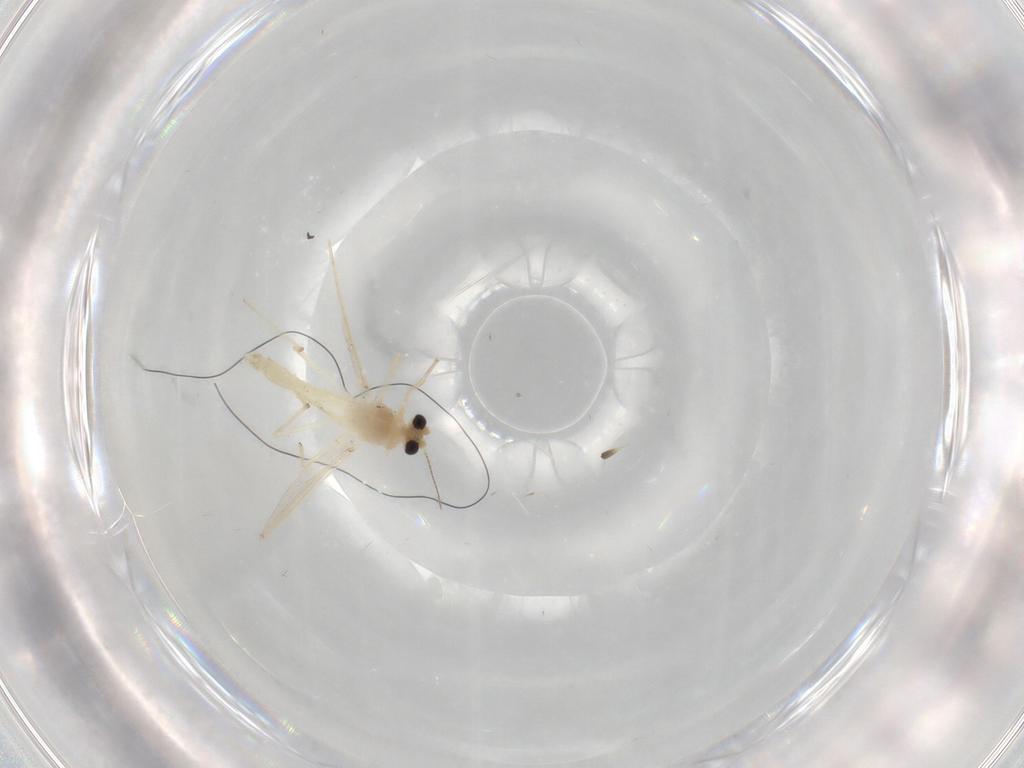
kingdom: Animalia
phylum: Arthropoda
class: Insecta
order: Diptera
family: Chironomidae
